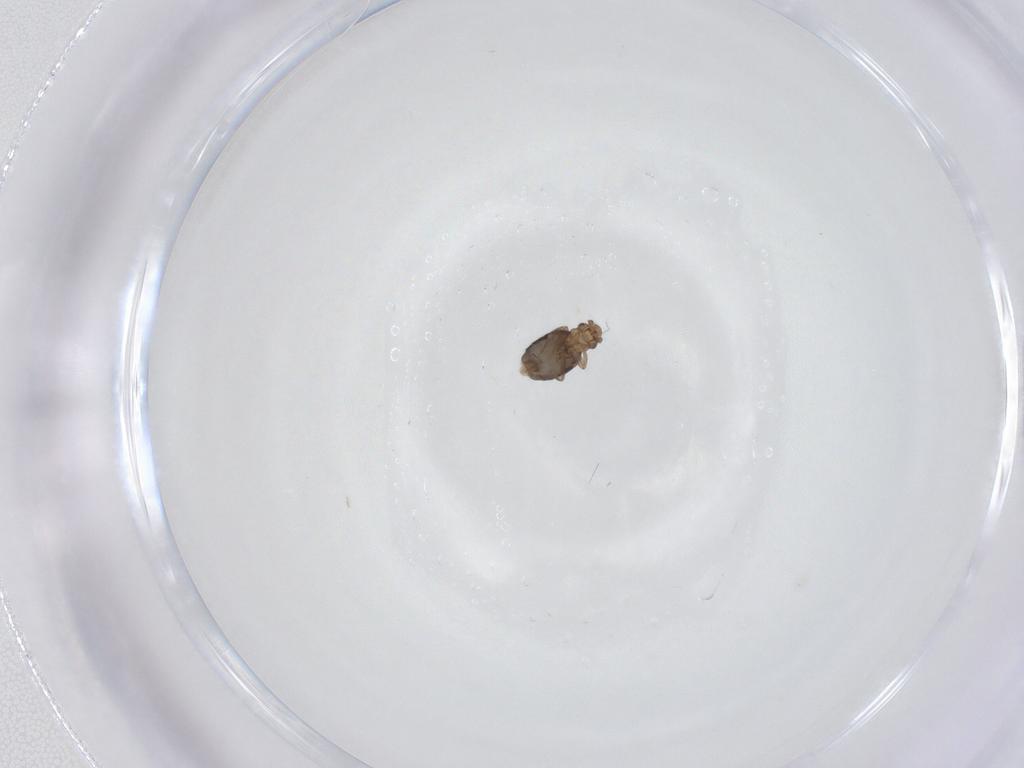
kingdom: Animalia
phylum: Arthropoda
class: Insecta
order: Diptera
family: Phoridae
